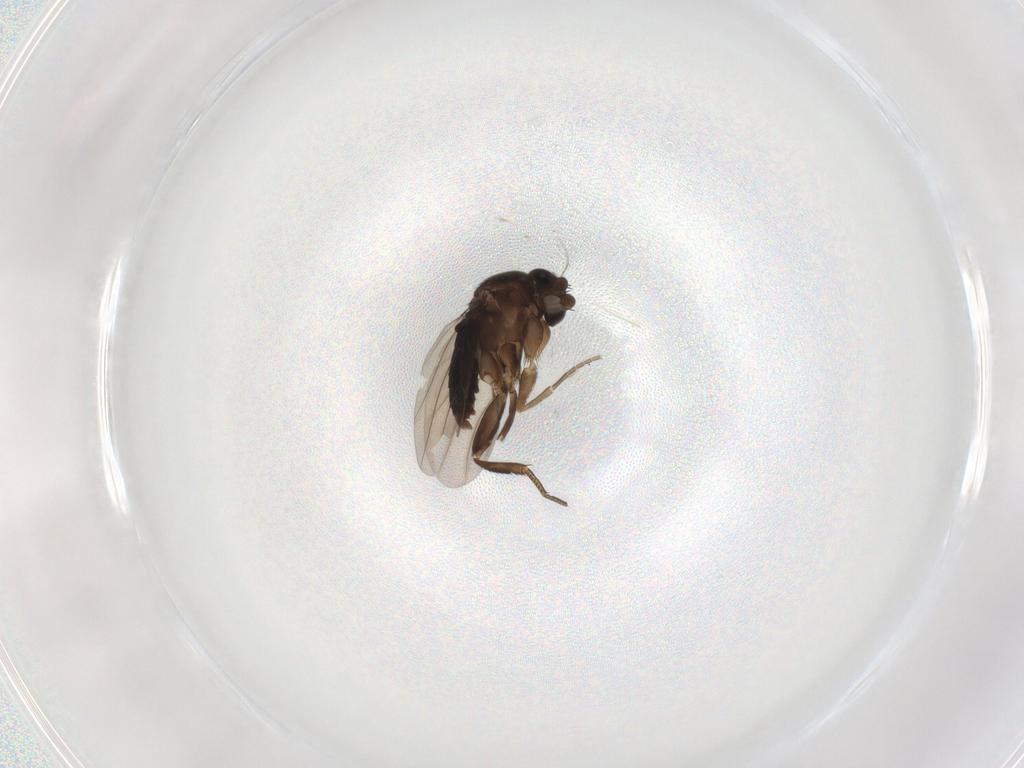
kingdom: Animalia
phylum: Arthropoda
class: Insecta
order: Diptera
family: Phoridae
